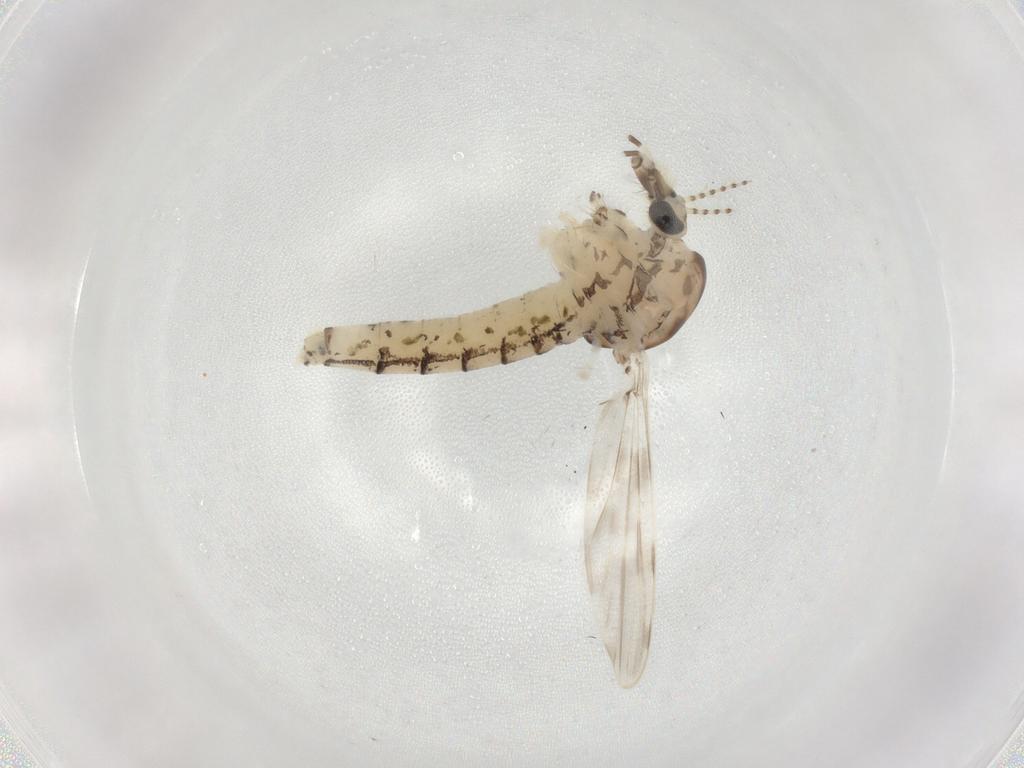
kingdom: Animalia
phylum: Arthropoda
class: Insecta
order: Diptera
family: Chaoboridae
